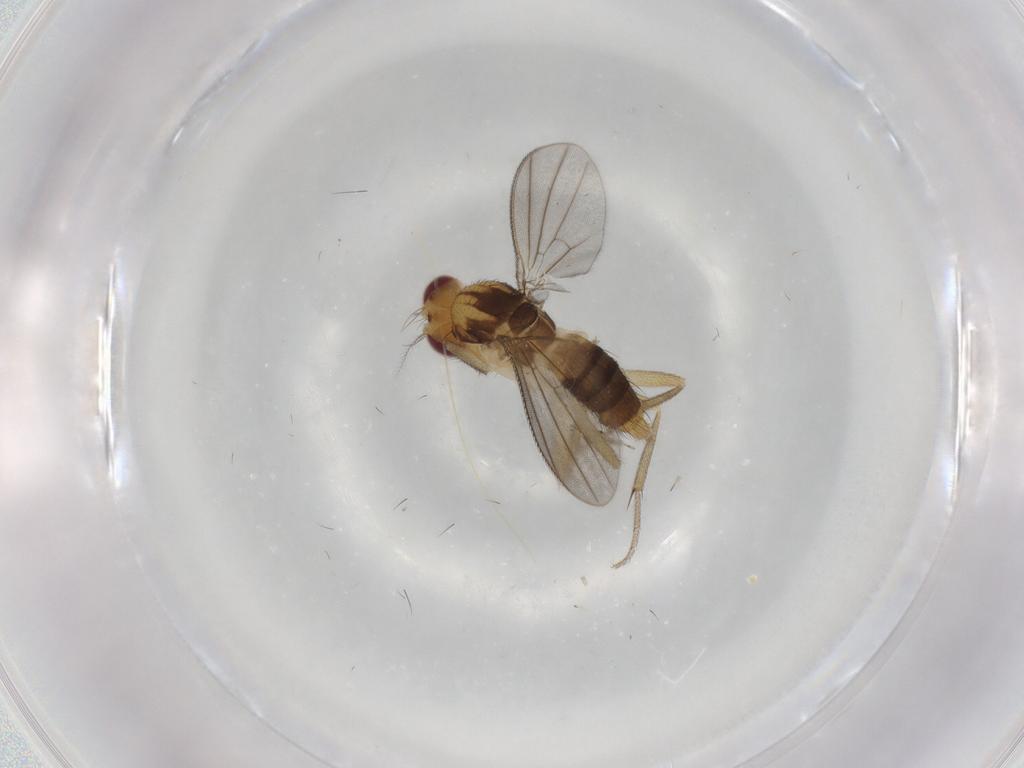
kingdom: Animalia
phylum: Arthropoda
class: Insecta
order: Diptera
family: Clusiidae
